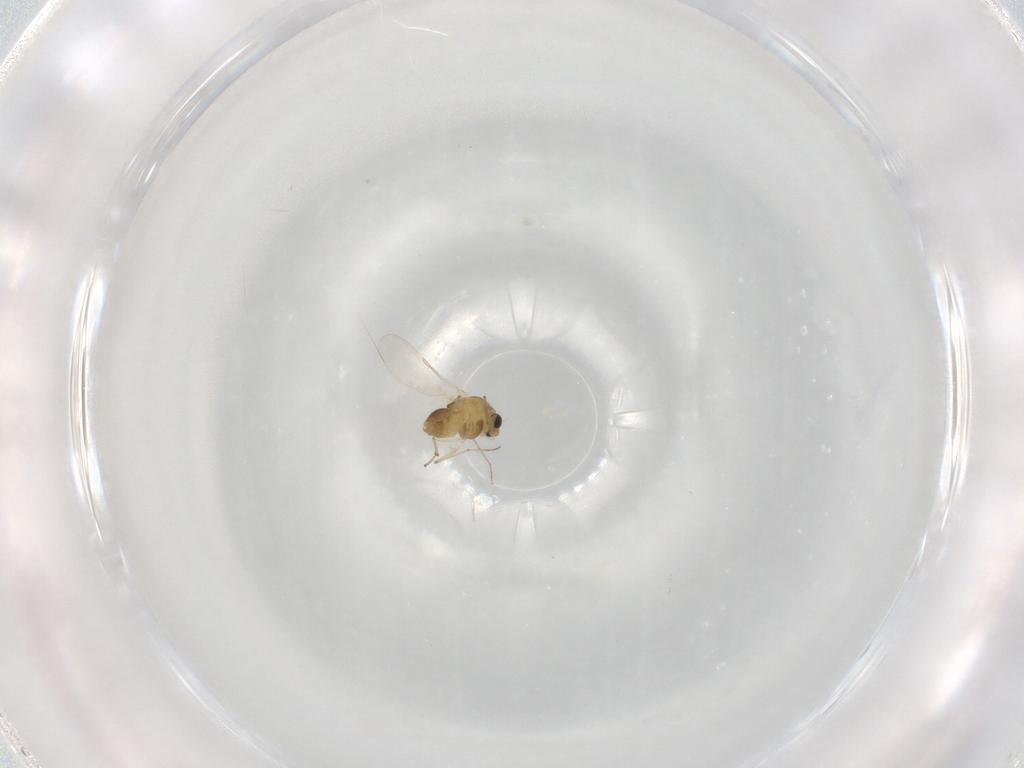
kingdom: Animalia
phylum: Arthropoda
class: Insecta
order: Diptera
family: Chironomidae
